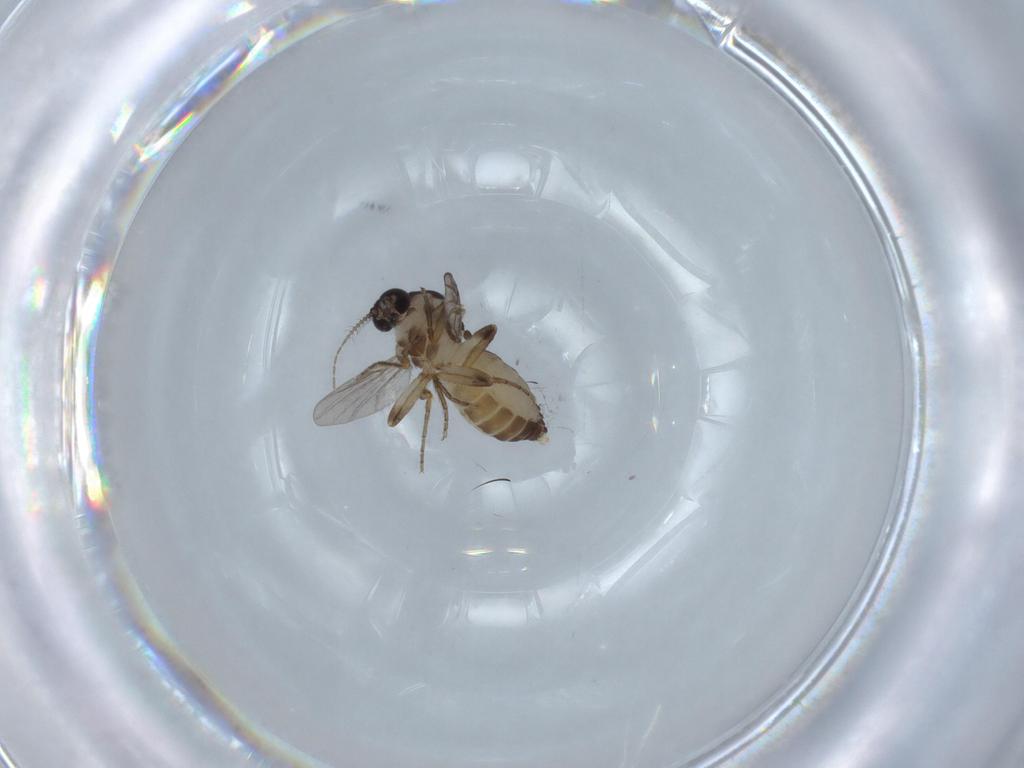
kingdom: Animalia
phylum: Arthropoda
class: Insecta
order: Diptera
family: Ceratopogonidae
